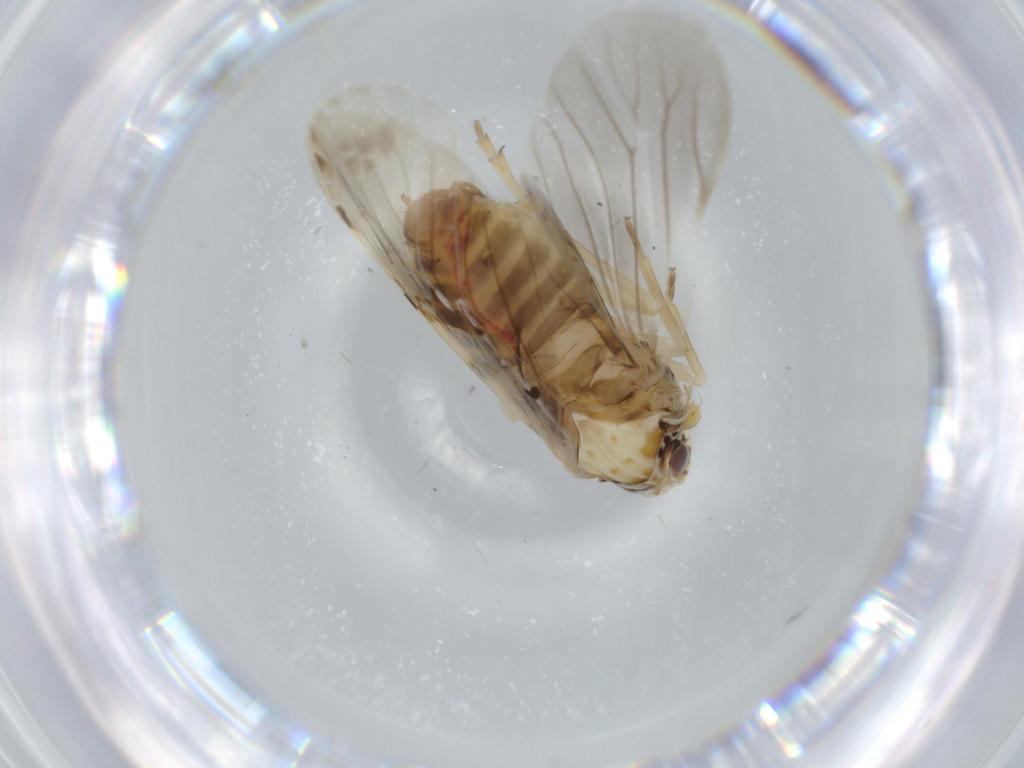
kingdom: Animalia
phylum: Arthropoda
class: Insecta
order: Hemiptera
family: Achilidae
